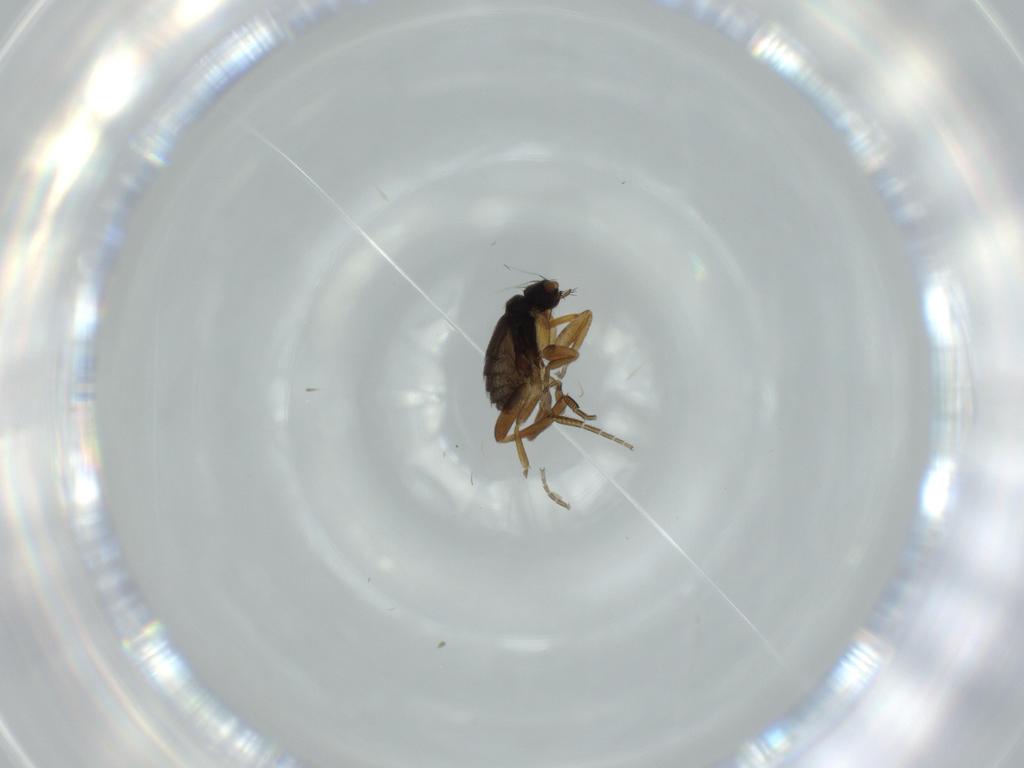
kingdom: Animalia
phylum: Arthropoda
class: Insecta
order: Diptera
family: Phoridae
